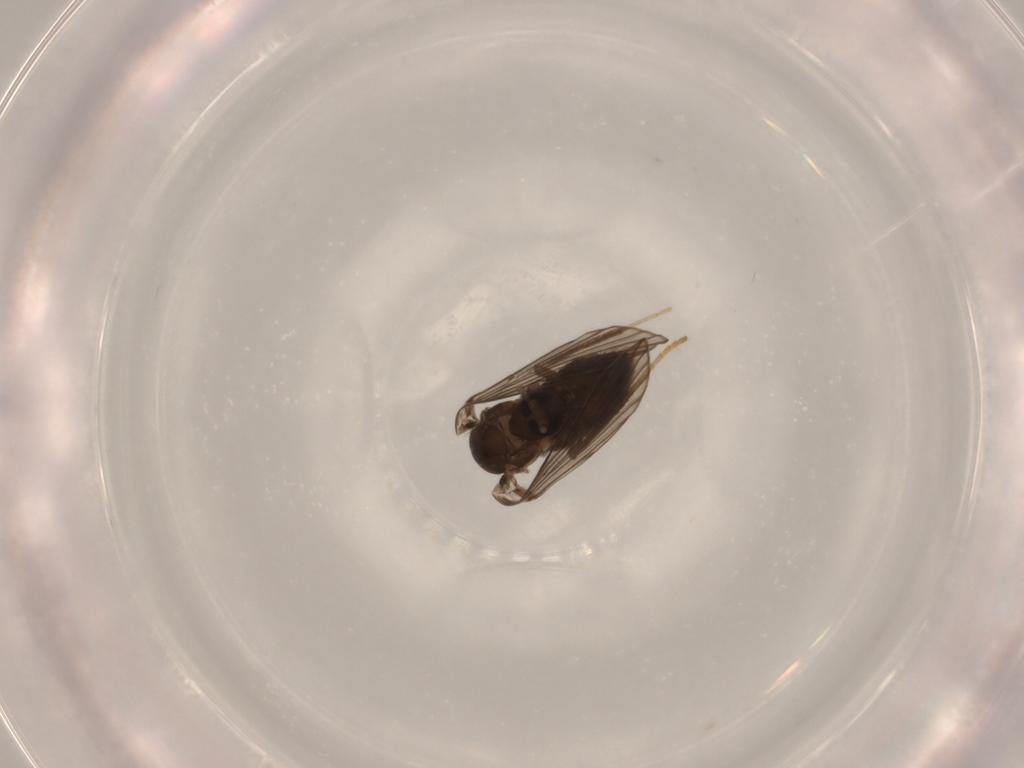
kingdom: Animalia
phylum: Arthropoda
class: Insecta
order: Diptera
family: Psychodidae
